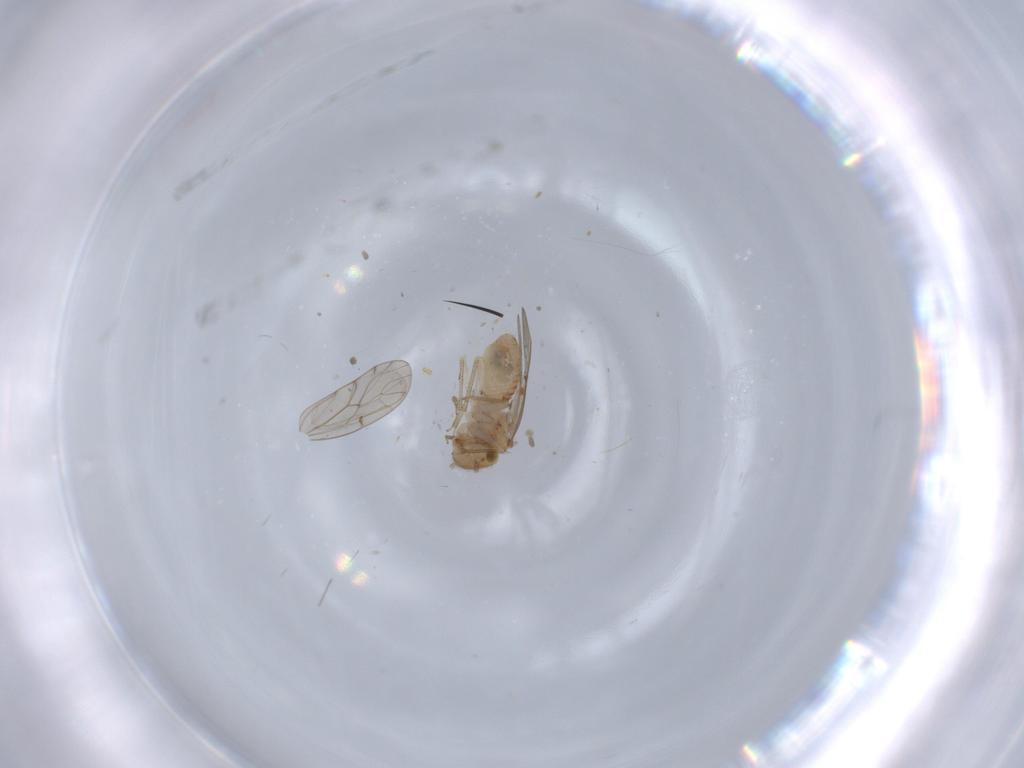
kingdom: Animalia
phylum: Arthropoda
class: Insecta
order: Psocodea
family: Ectopsocidae
